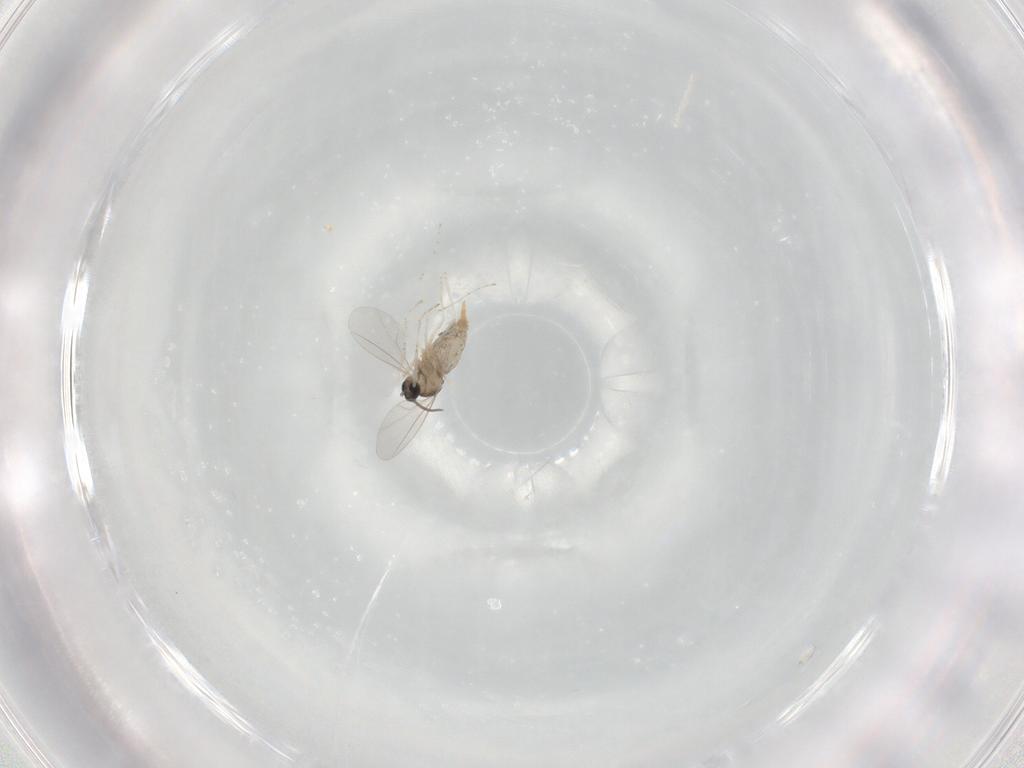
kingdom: Animalia
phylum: Arthropoda
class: Insecta
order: Diptera
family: Cecidomyiidae
